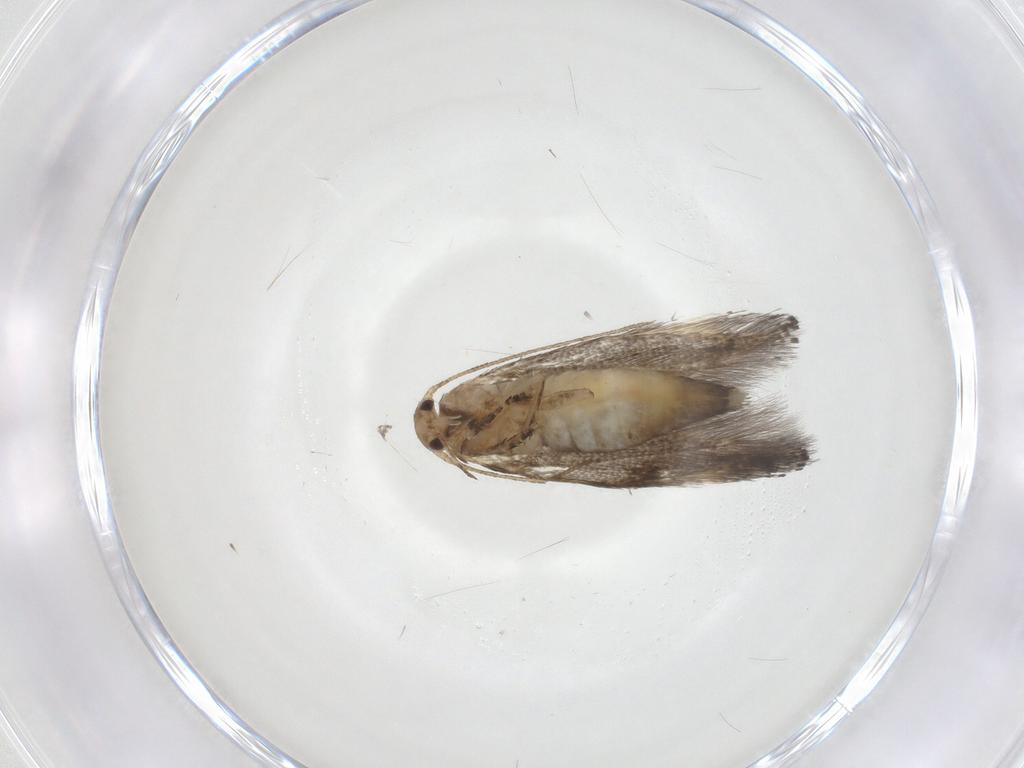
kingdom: Animalia
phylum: Arthropoda
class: Insecta
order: Lepidoptera
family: Elachistidae
